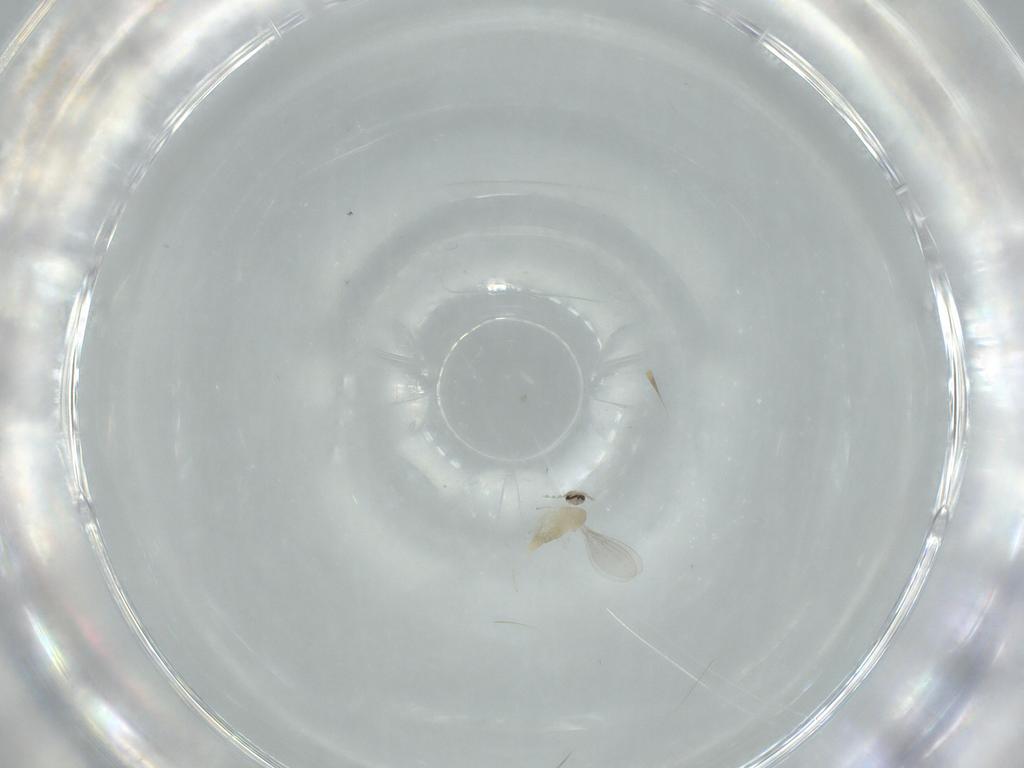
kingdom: Animalia
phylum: Arthropoda
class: Insecta
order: Diptera
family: Cecidomyiidae
